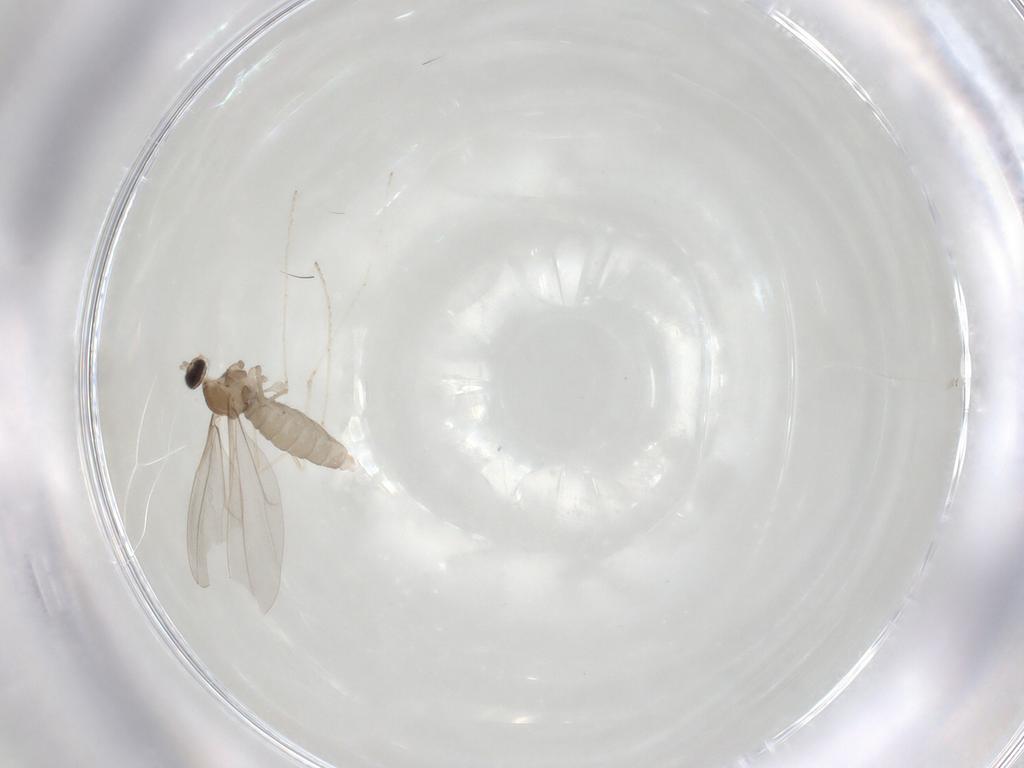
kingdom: Animalia
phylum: Arthropoda
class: Insecta
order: Diptera
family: Cecidomyiidae
